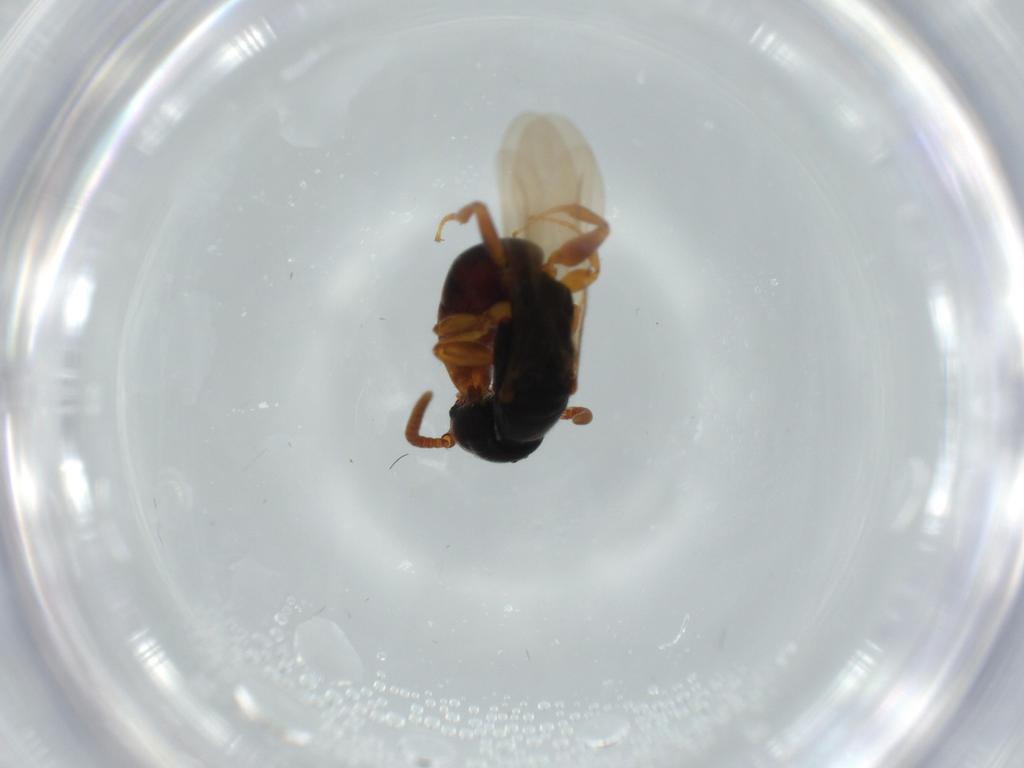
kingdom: Animalia
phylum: Arthropoda
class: Insecta
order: Hymenoptera
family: Bethylidae
